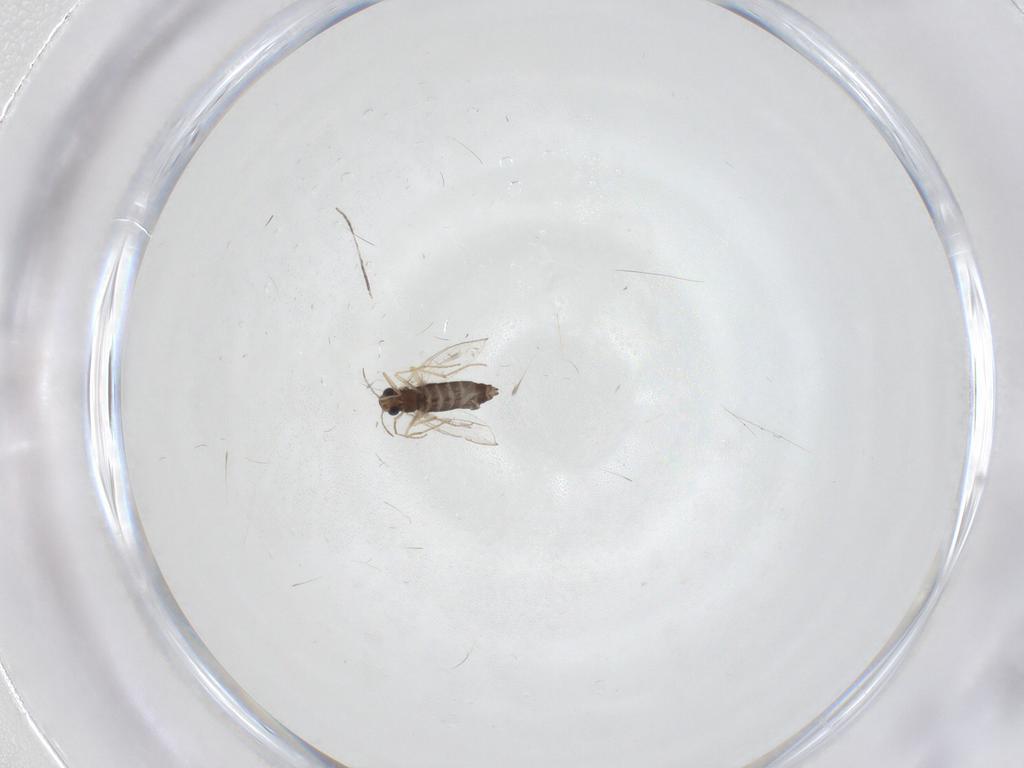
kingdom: Animalia
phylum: Arthropoda
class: Insecta
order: Diptera
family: Chironomidae
